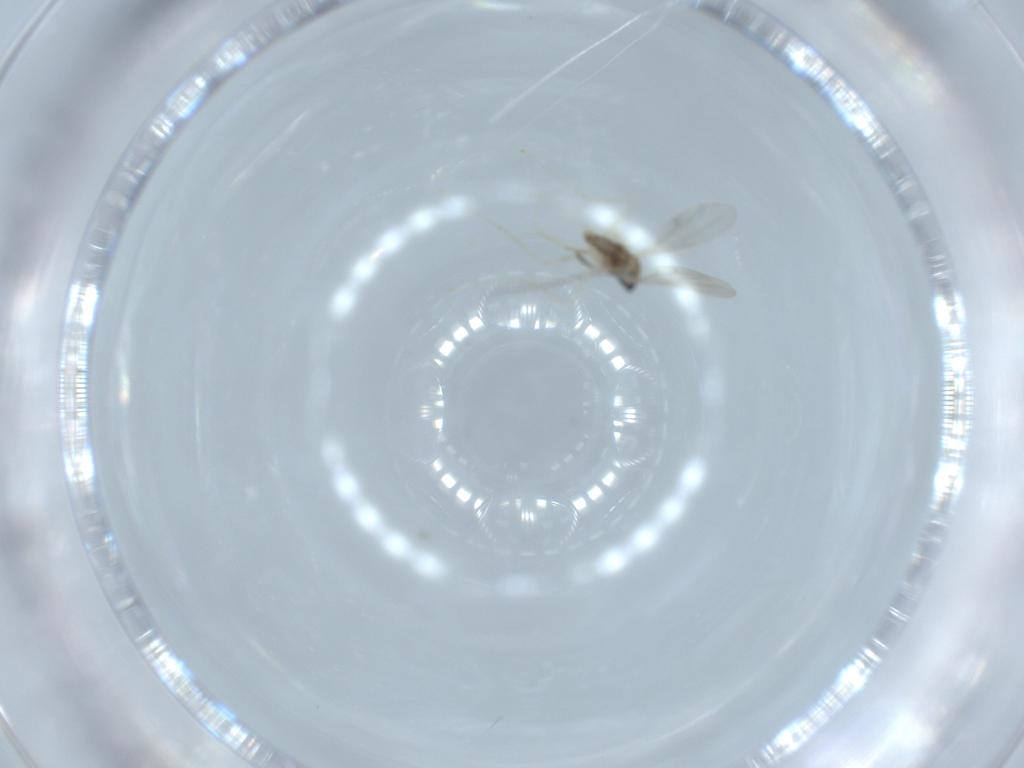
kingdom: Animalia
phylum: Arthropoda
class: Insecta
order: Diptera
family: Cecidomyiidae
